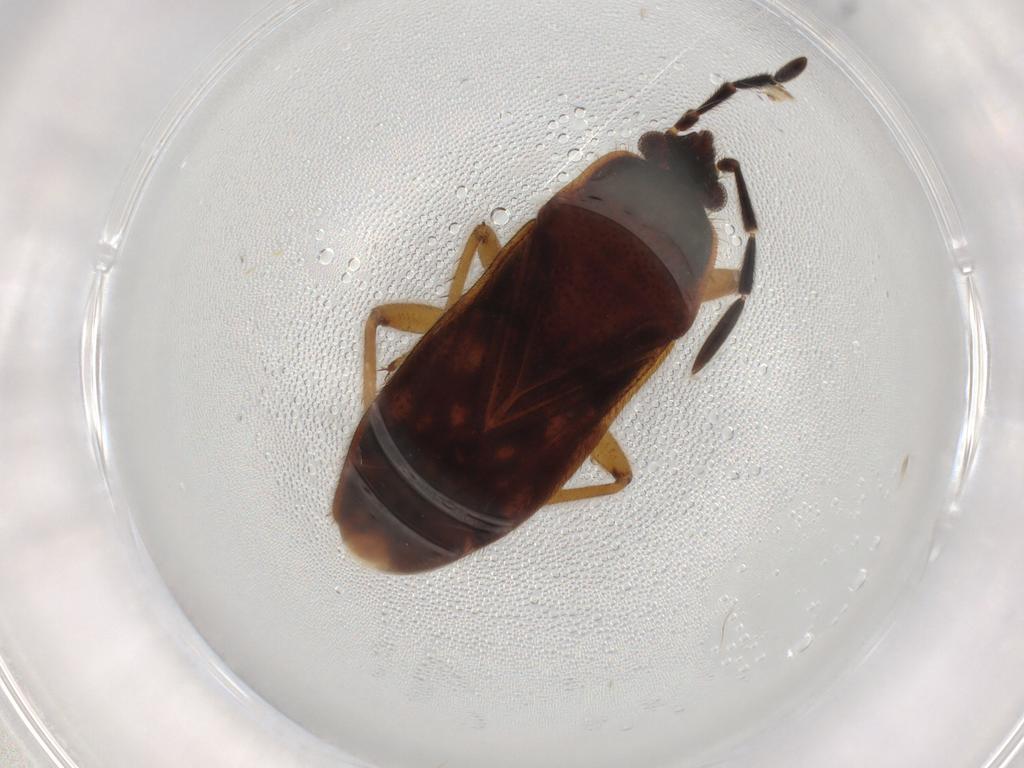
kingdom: Animalia
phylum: Arthropoda
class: Insecta
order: Hemiptera
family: Rhyparochromidae
